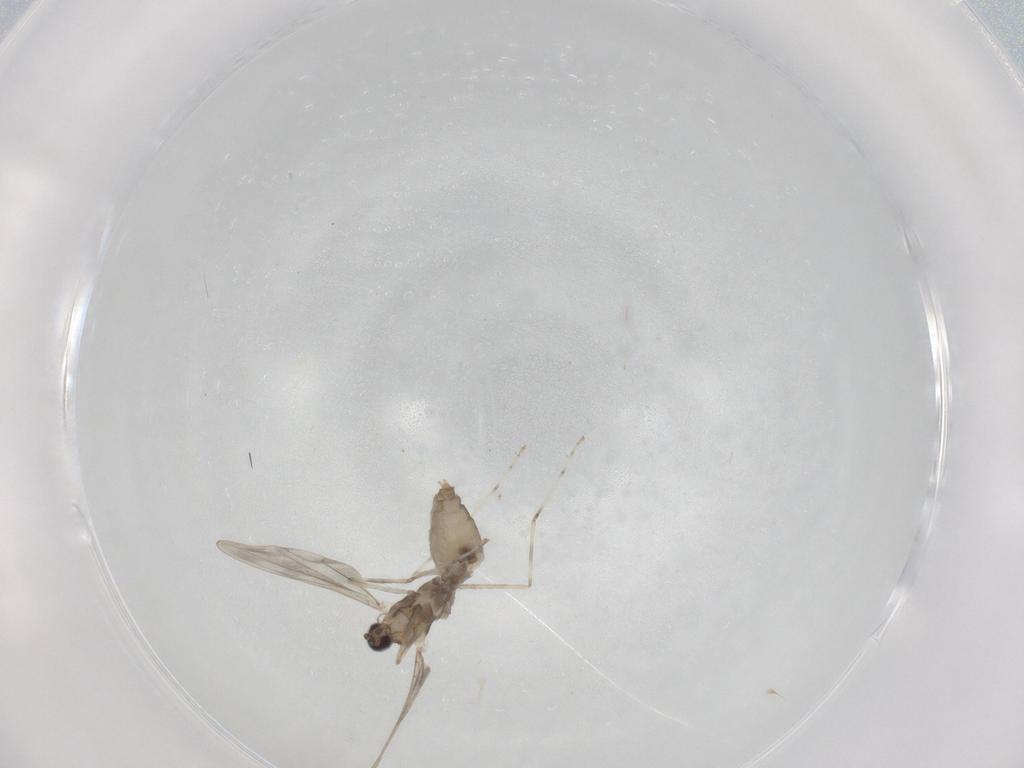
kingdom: Animalia
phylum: Arthropoda
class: Insecta
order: Diptera
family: Cecidomyiidae
